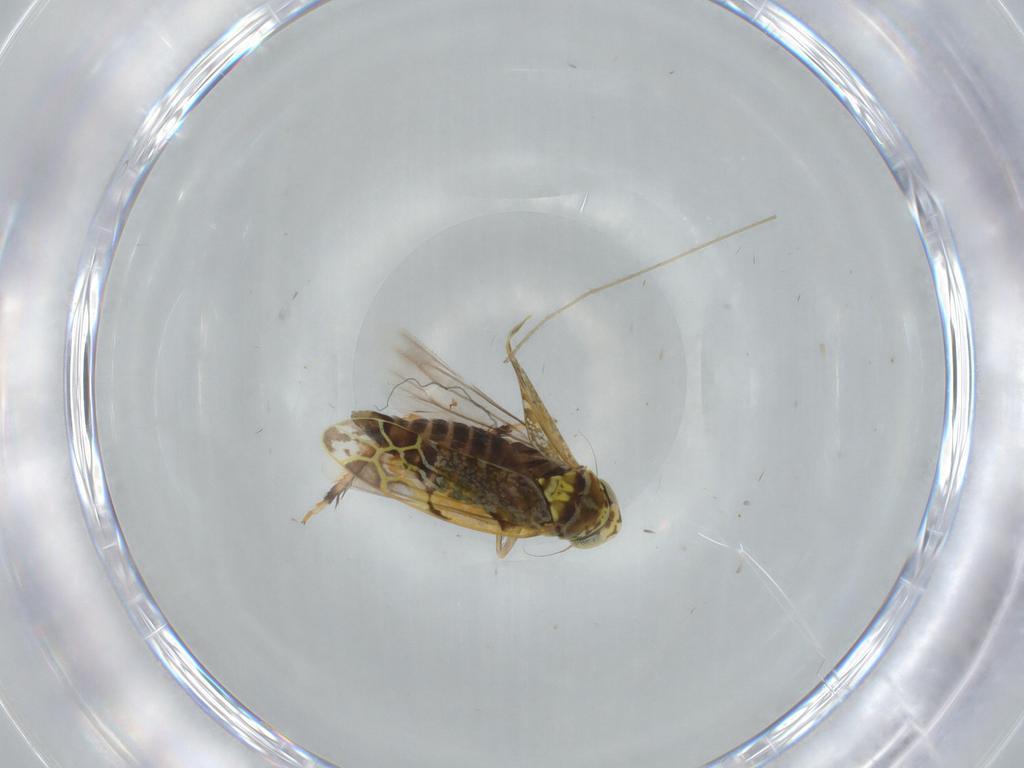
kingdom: Animalia
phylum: Arthropoda
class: Insecta
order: Hemiptera
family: Cicadellidae
